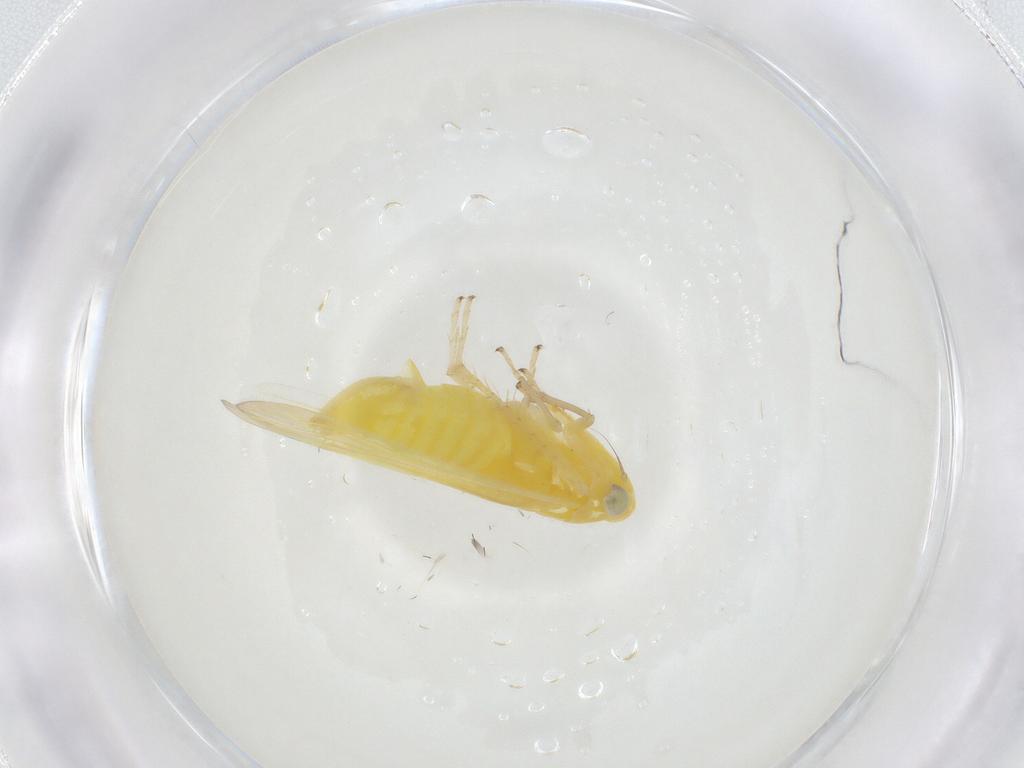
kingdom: Animalia
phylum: Arthropoda
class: Insecta
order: Hemiptera
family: Cicadellidae
